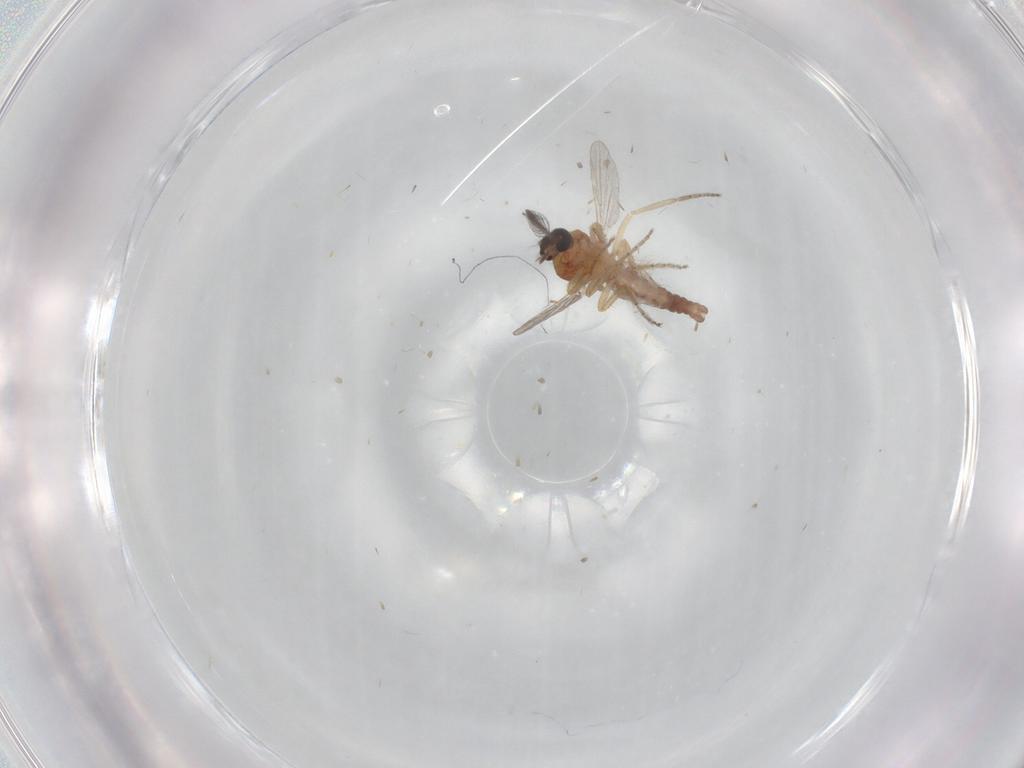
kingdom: Animalia
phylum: Arthropoda
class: Insecta
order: Diptera
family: Ceratopogonidae
